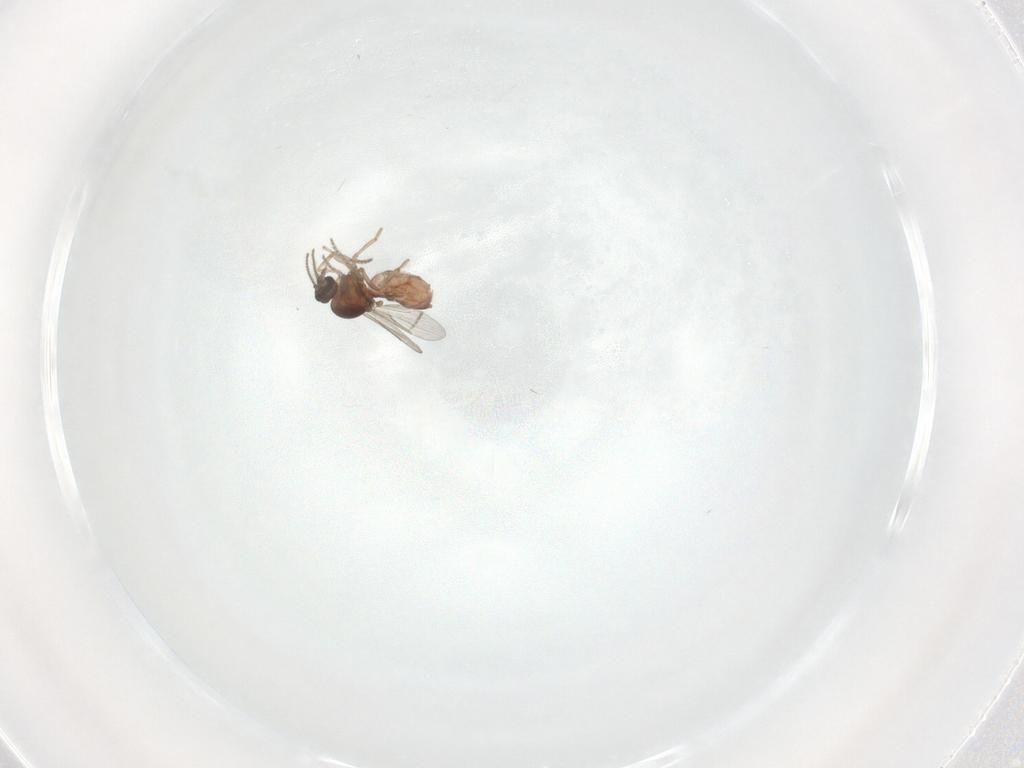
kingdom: Animalia
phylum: Arthropoda
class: Insecta
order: Diptera
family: Ceratopogonidae
